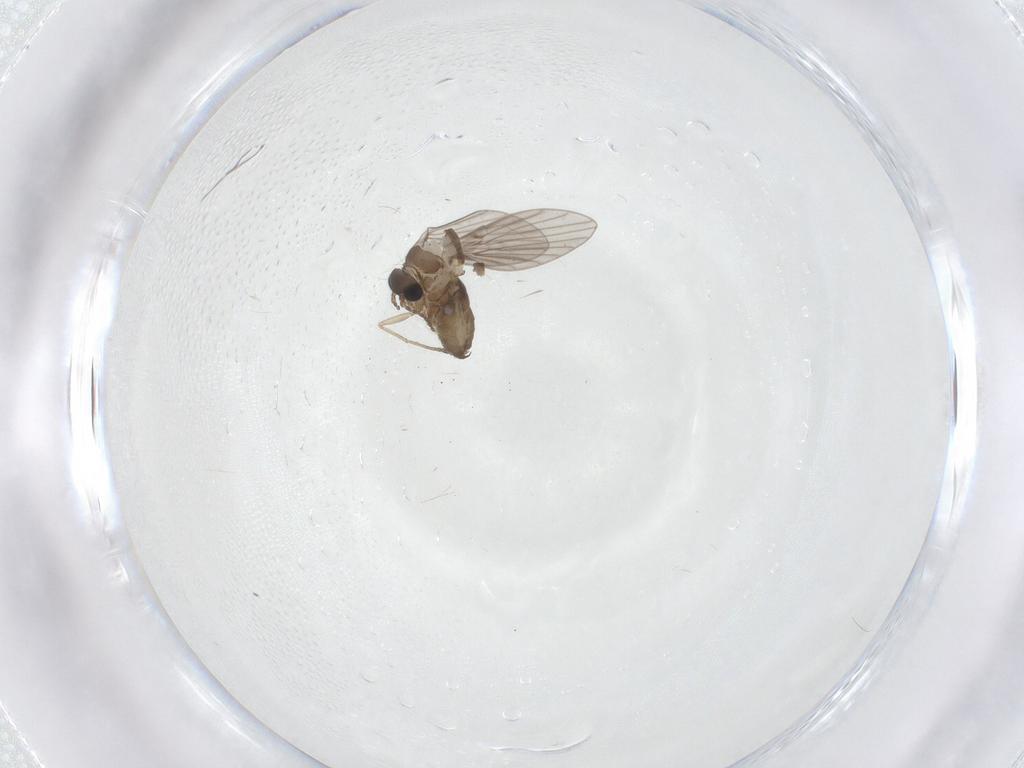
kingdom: Animalia
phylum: Arthropoda
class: Insecta
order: Diptera
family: Psychodidae
